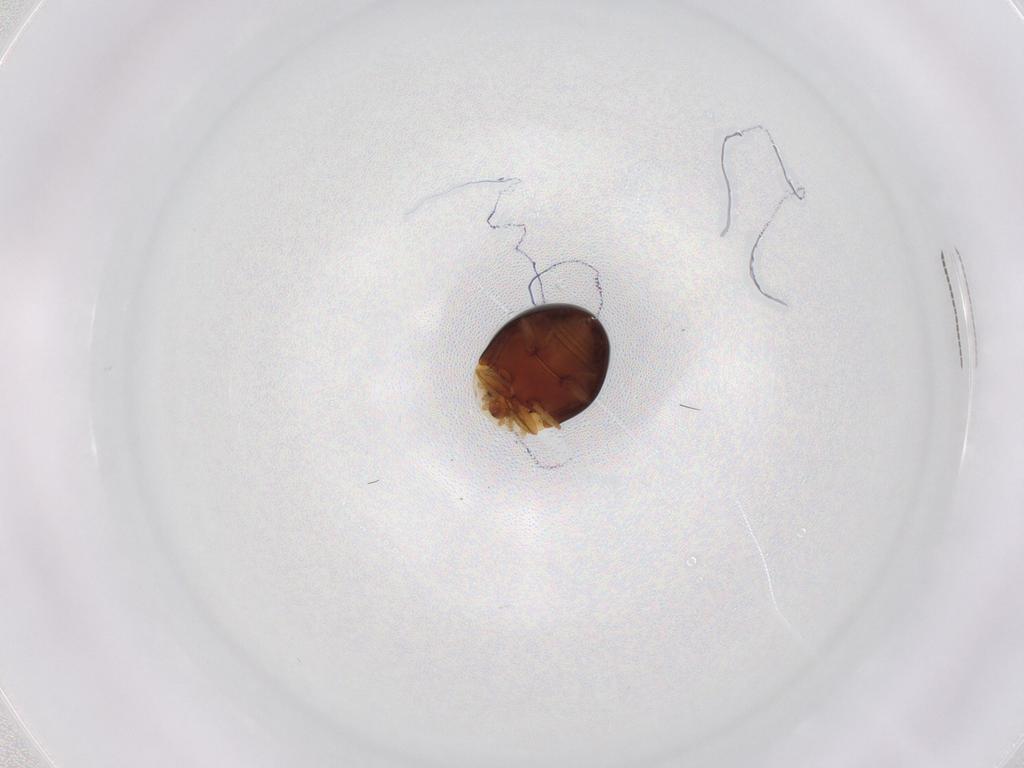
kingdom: Animalia
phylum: Arthropoda
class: Insecta
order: Coleoptera
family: Corylophidae
